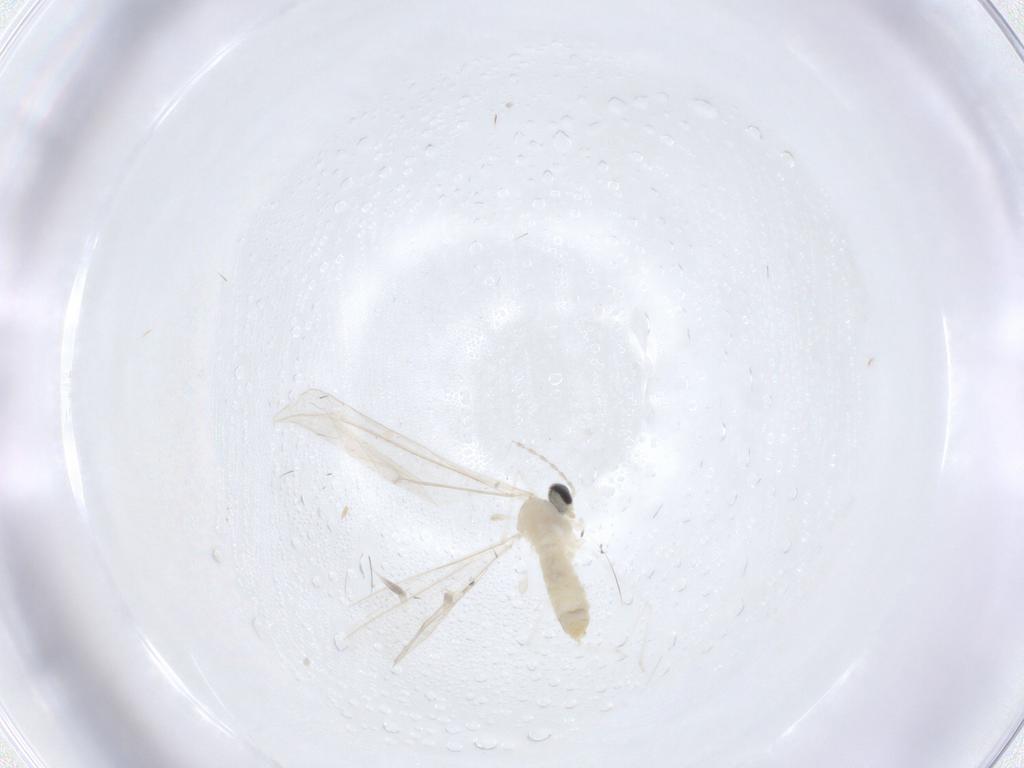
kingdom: Animalia
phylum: Arthropoda
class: Insecta
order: Diptera
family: Cecidomyiidae
